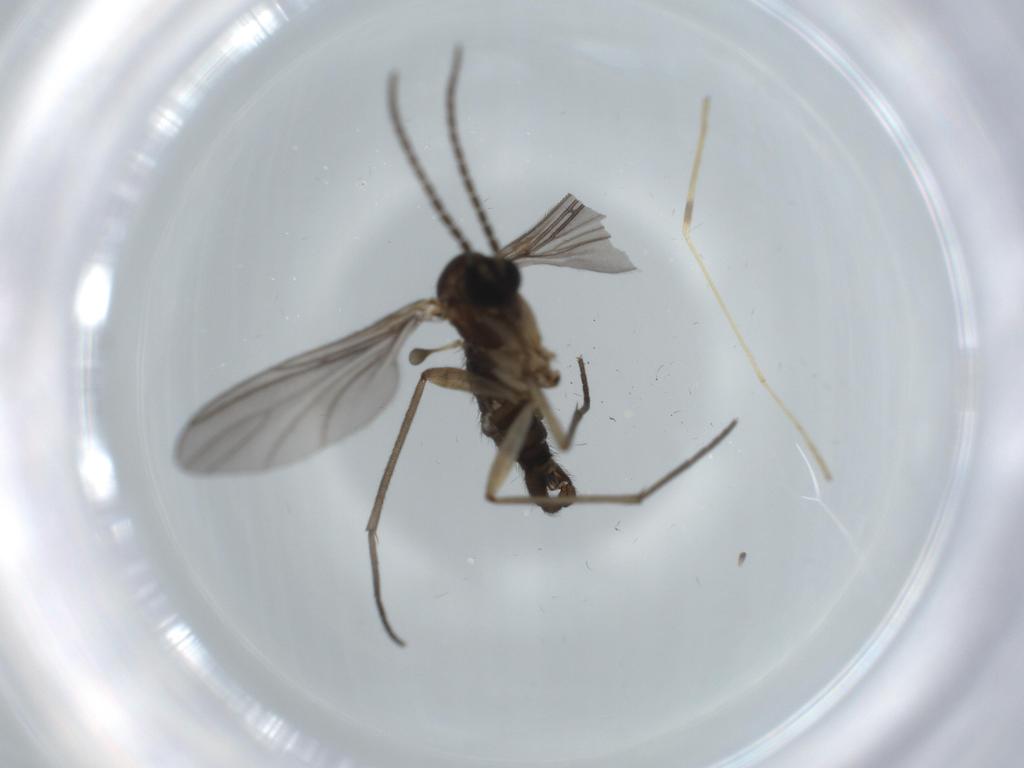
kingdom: Animalia
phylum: Arthropoda
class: Insecta
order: Diptera
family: Sciaridae
